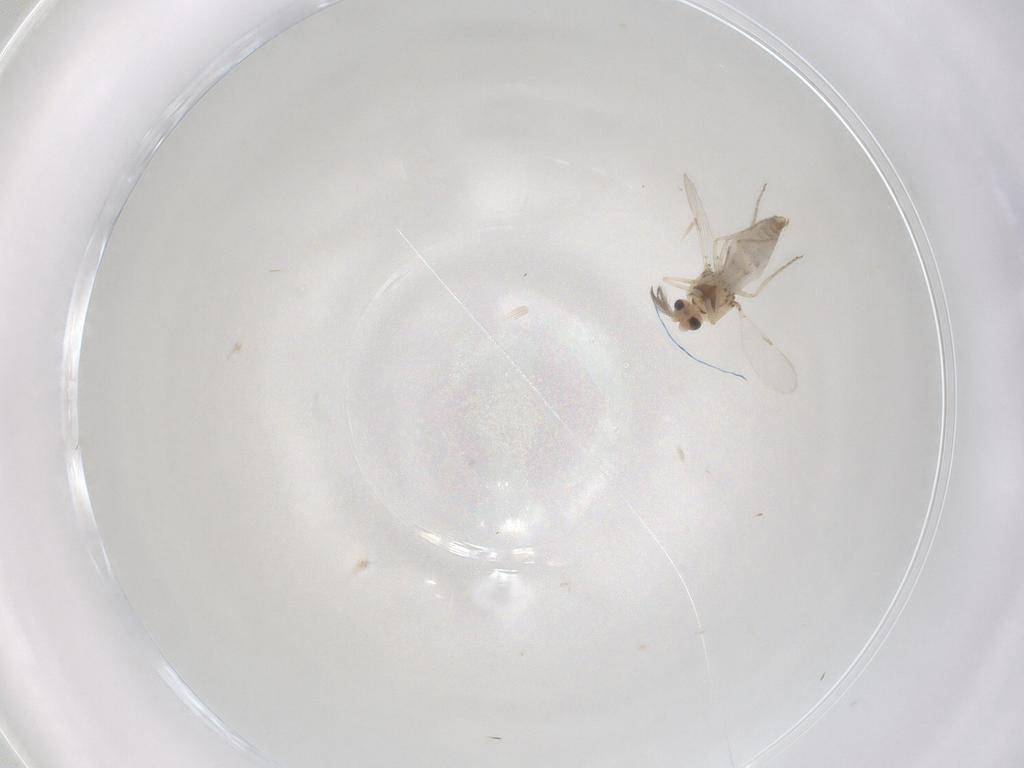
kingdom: Animalia
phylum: Arthropoda
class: Insecta
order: Diptera
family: Ceratopogonidae
